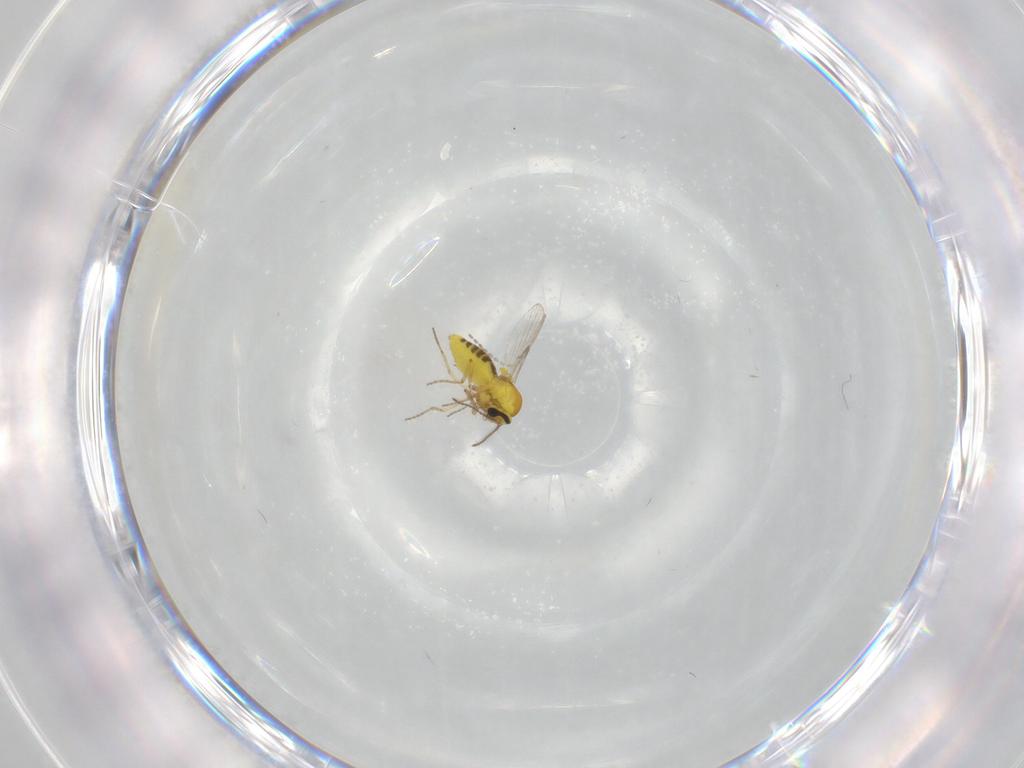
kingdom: Animalia
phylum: Arthropoda
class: Insecta
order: Diptera
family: Ceratopogonidae
